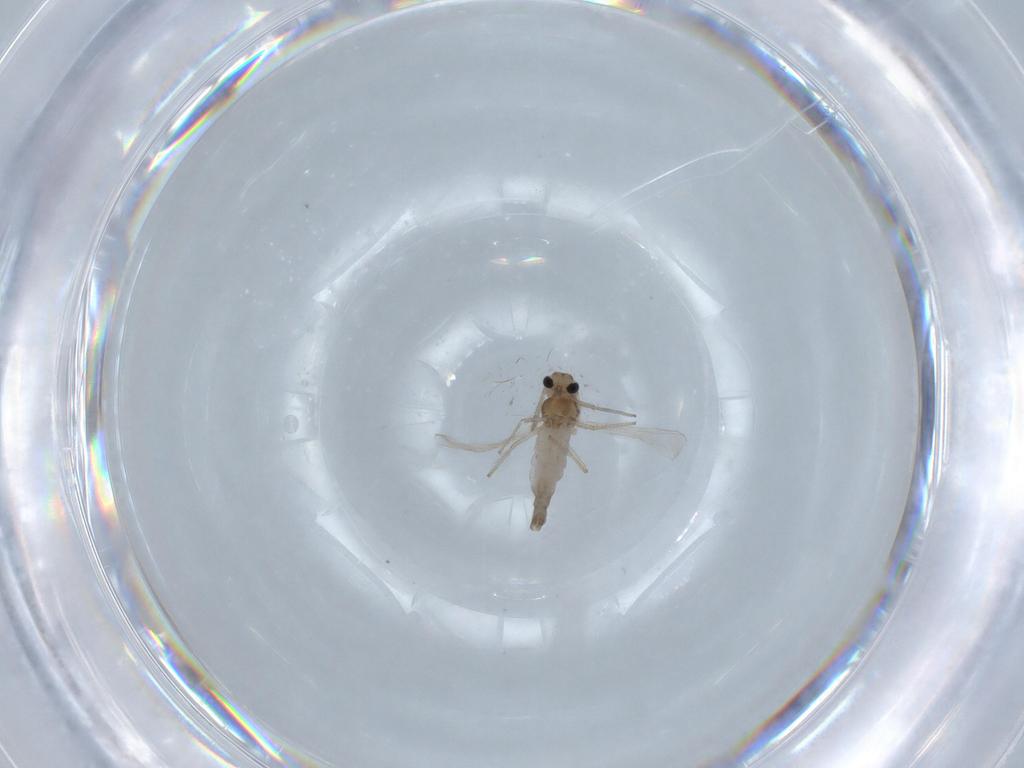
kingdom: Animalia
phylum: Arthropoda
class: Insecta
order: Diptera
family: Chironomidae
